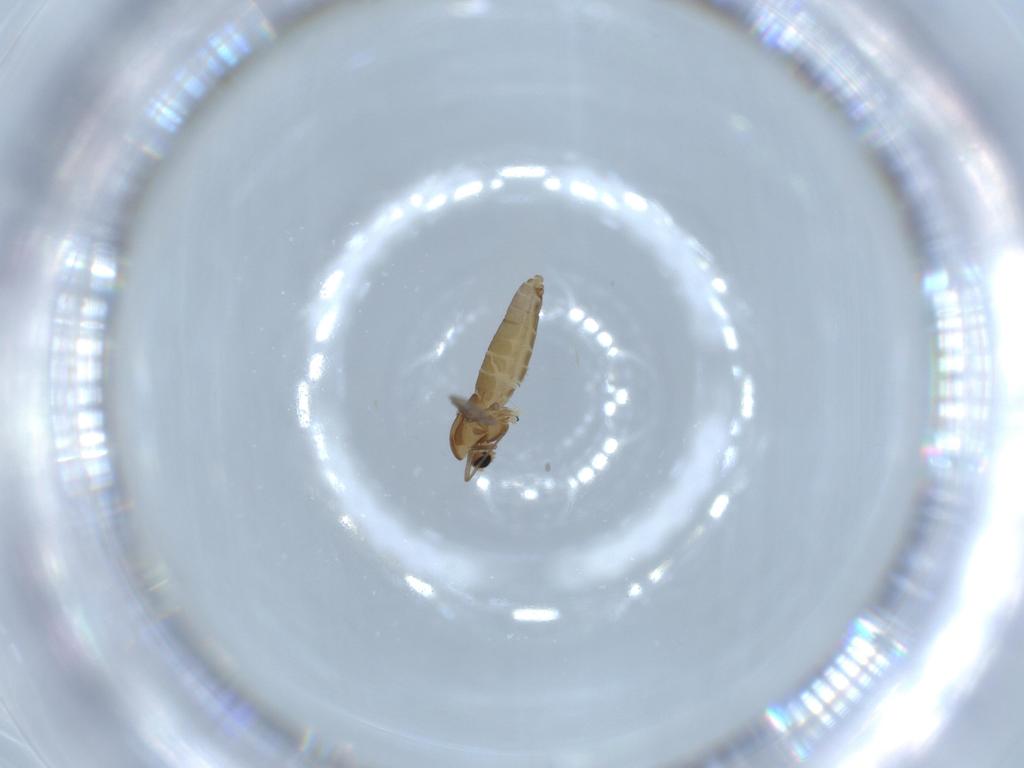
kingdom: Animalia
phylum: Arthropoda
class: Insecta
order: Diptera
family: Chironomidae
